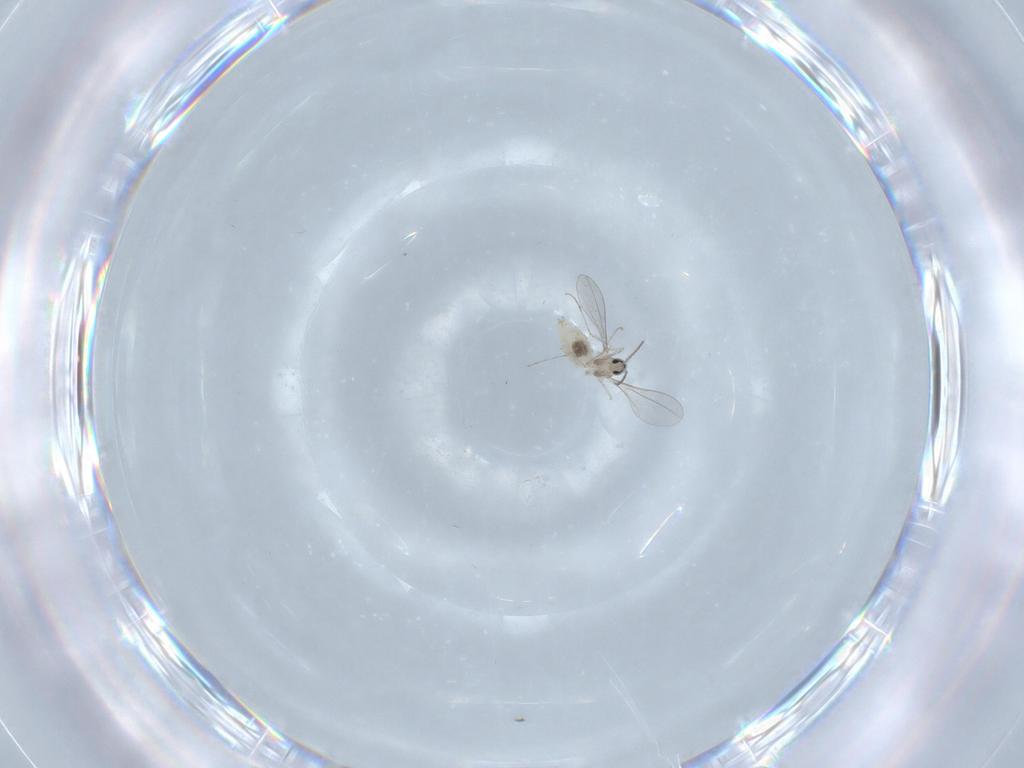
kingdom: Animalia
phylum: Arthropoda
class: Insecta
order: Diptera
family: Cecidomyiidae
